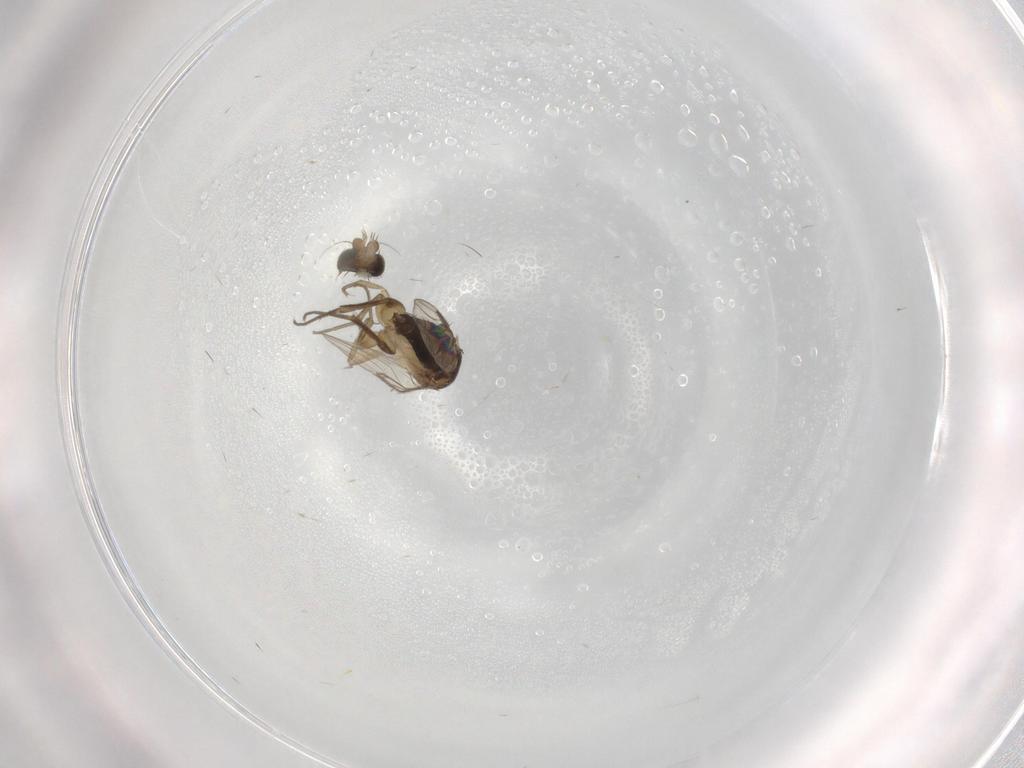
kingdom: Animalia
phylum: Arthropoda
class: Insecta
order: Diptera
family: Phoridae
